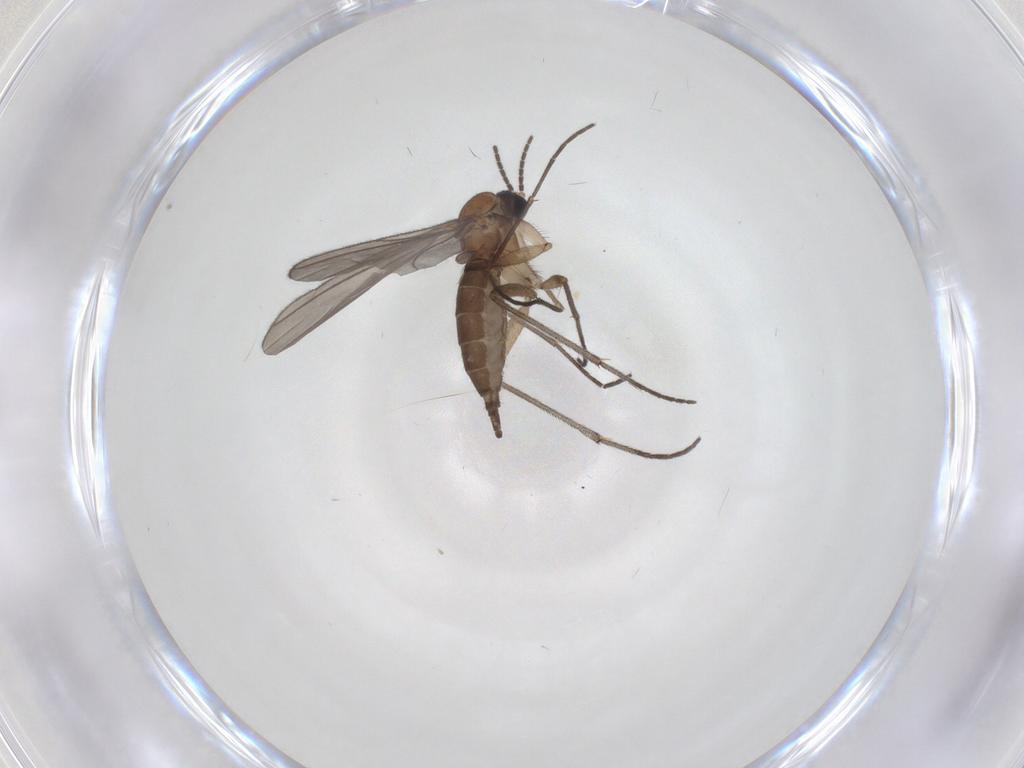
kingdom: Animalia
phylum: Arthropoda
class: Insecta
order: Diptera
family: Sciaridae
